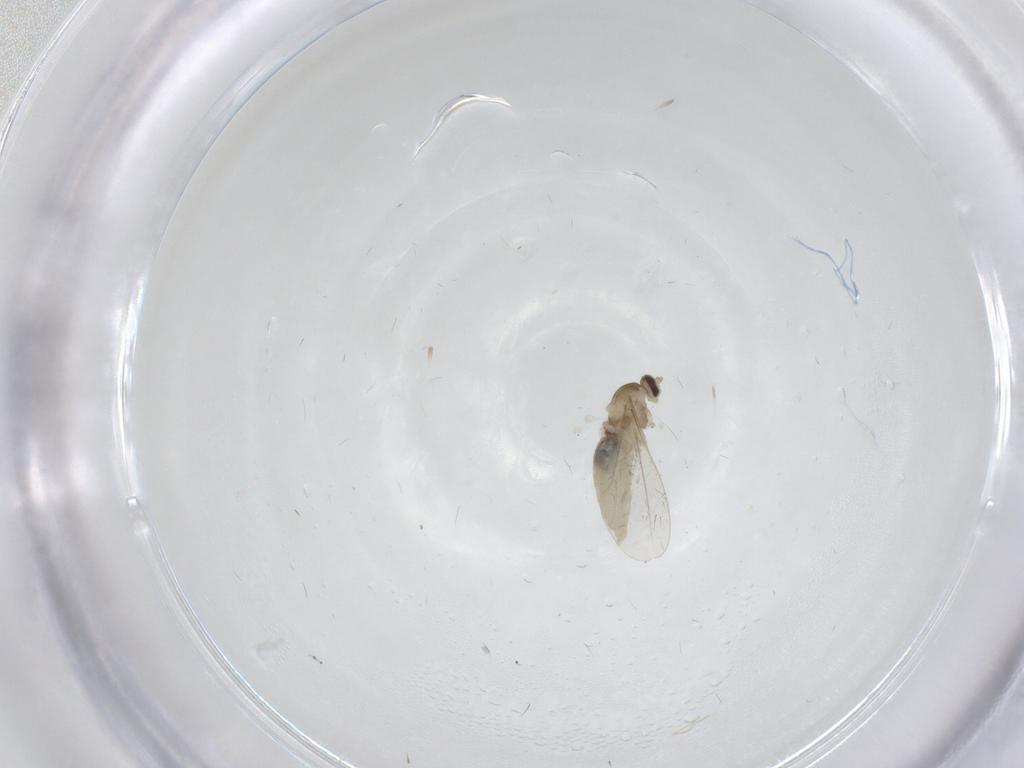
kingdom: Animalia
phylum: Arthropoda
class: Insecta
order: Diptera
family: Cecidomyiidae
